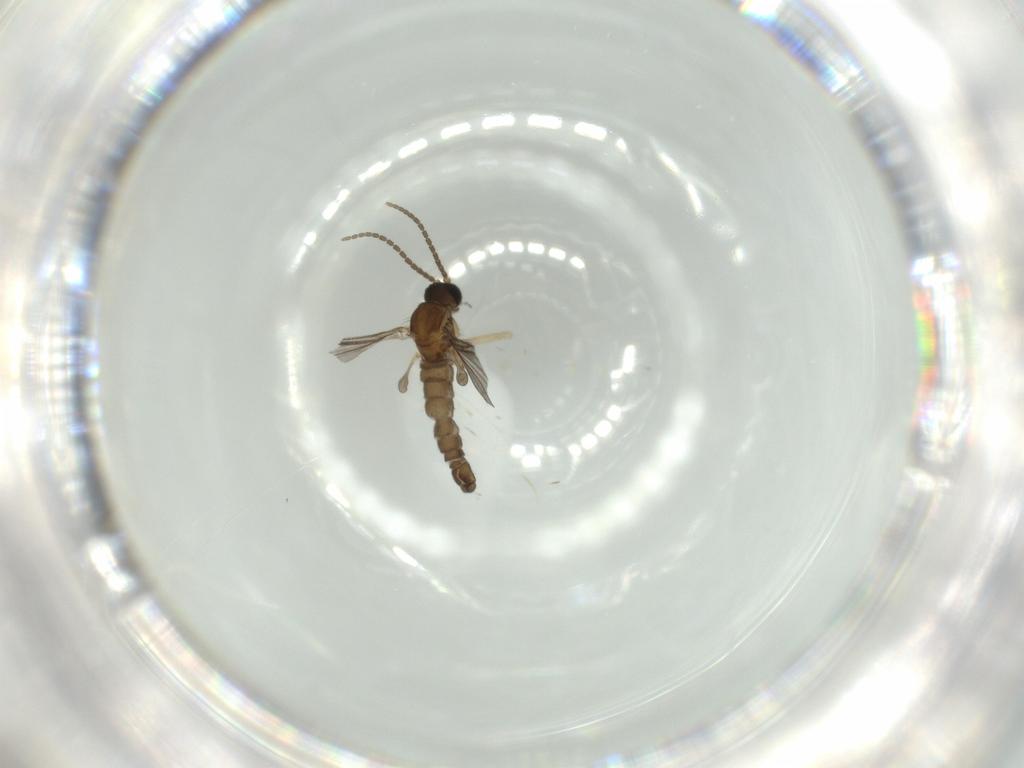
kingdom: Animalia
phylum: Arthropoda
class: Insecta
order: Diptera
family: Sciaridae
